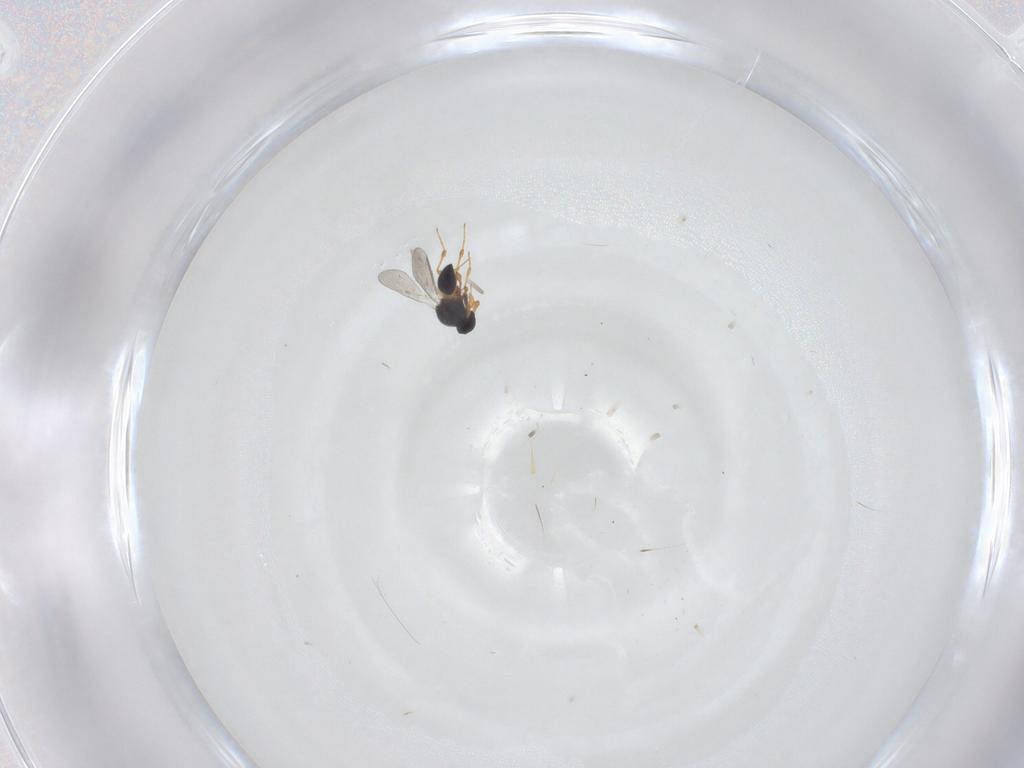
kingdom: Animalia
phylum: Arthropoda
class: Insecta
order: Hymenoptera
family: Platygastridae
